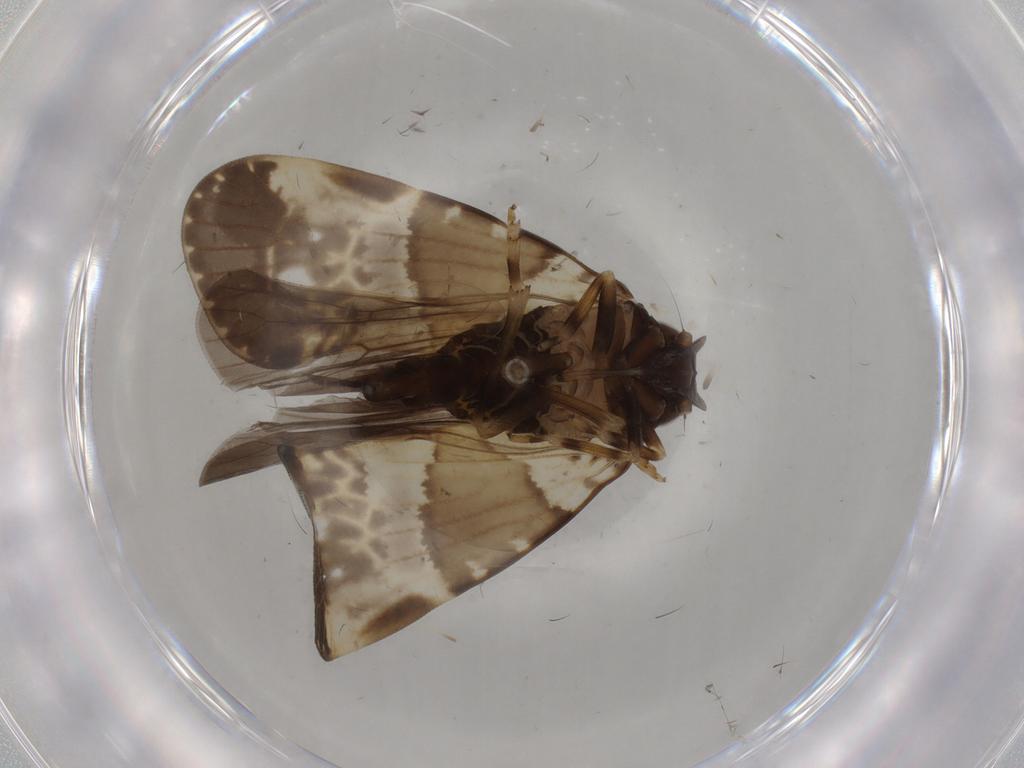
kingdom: Animalia
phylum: Arthropoda
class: Insecta
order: Hemiptera
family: Cixiidae
